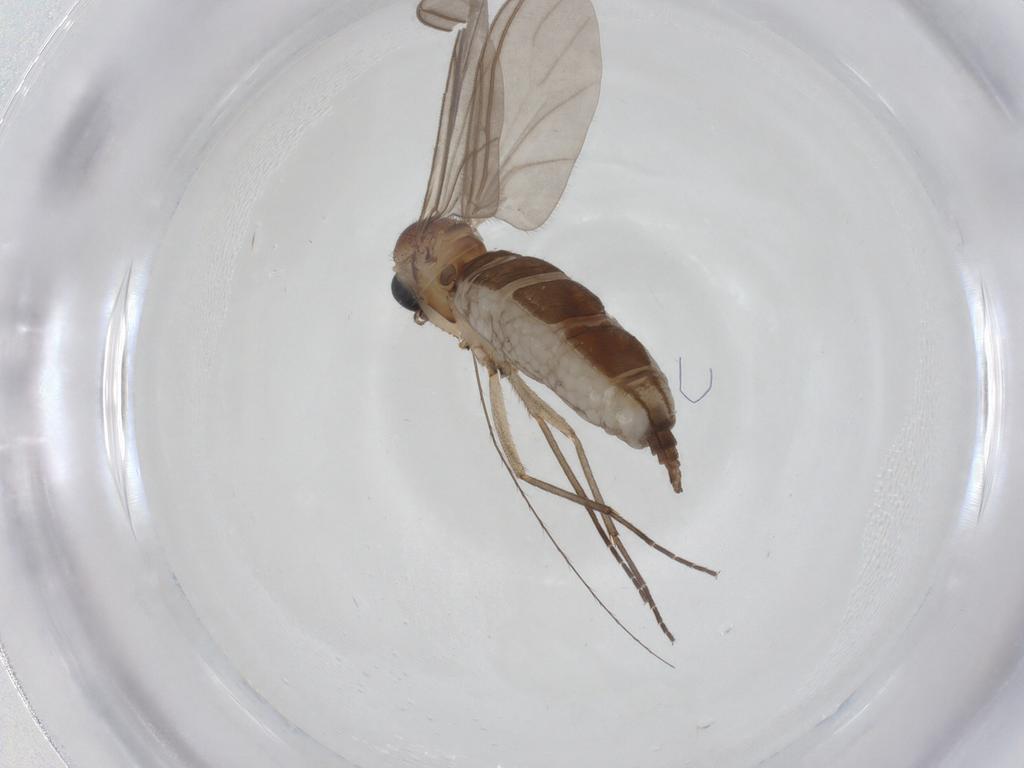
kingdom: Animalia
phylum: Arthropoda
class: Insecta
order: Diptera
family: Sciaridae
